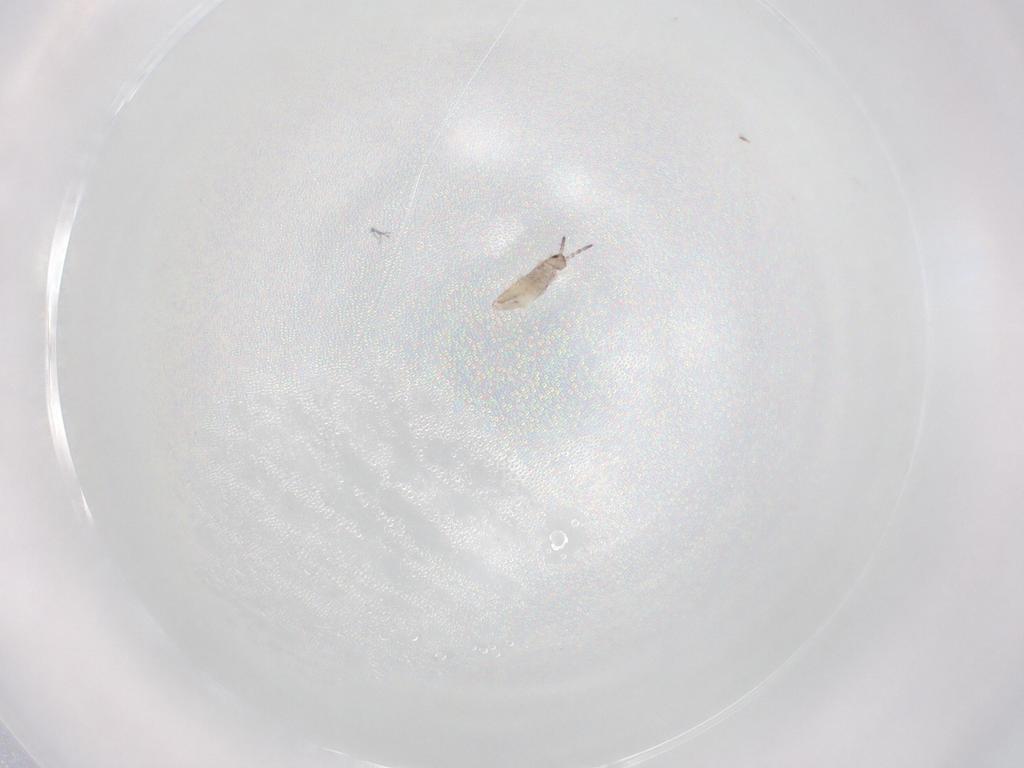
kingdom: Animalia
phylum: Arthropoda
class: Collembola
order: Entomobryomorpha
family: Entomobryidae
